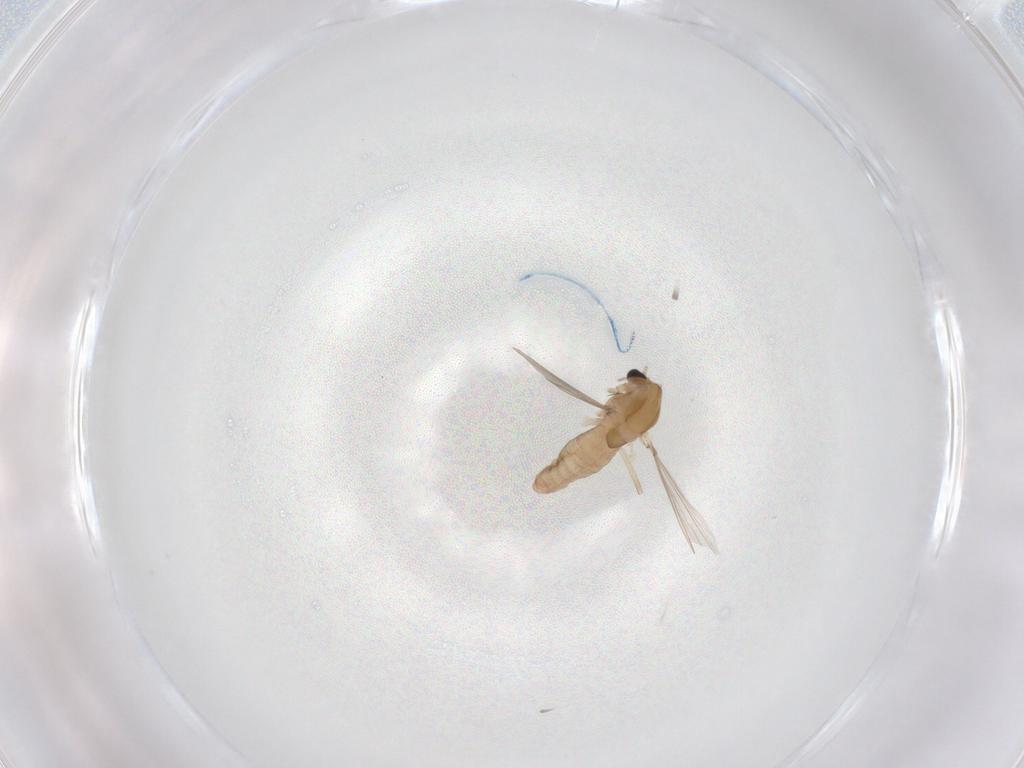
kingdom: Animalia
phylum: Arthropoda
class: Insecta
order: Diptera
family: Chironomidae
